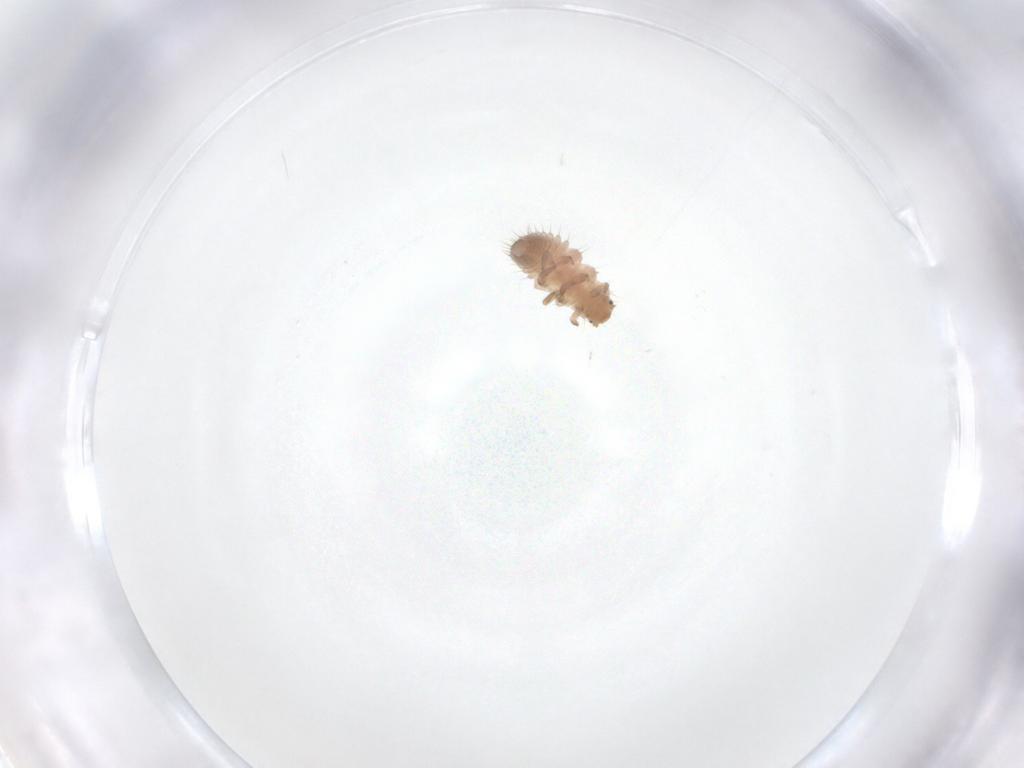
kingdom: Animalia
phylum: Arthropoda
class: Insecta
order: Coleoptera
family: Coccinellidae
